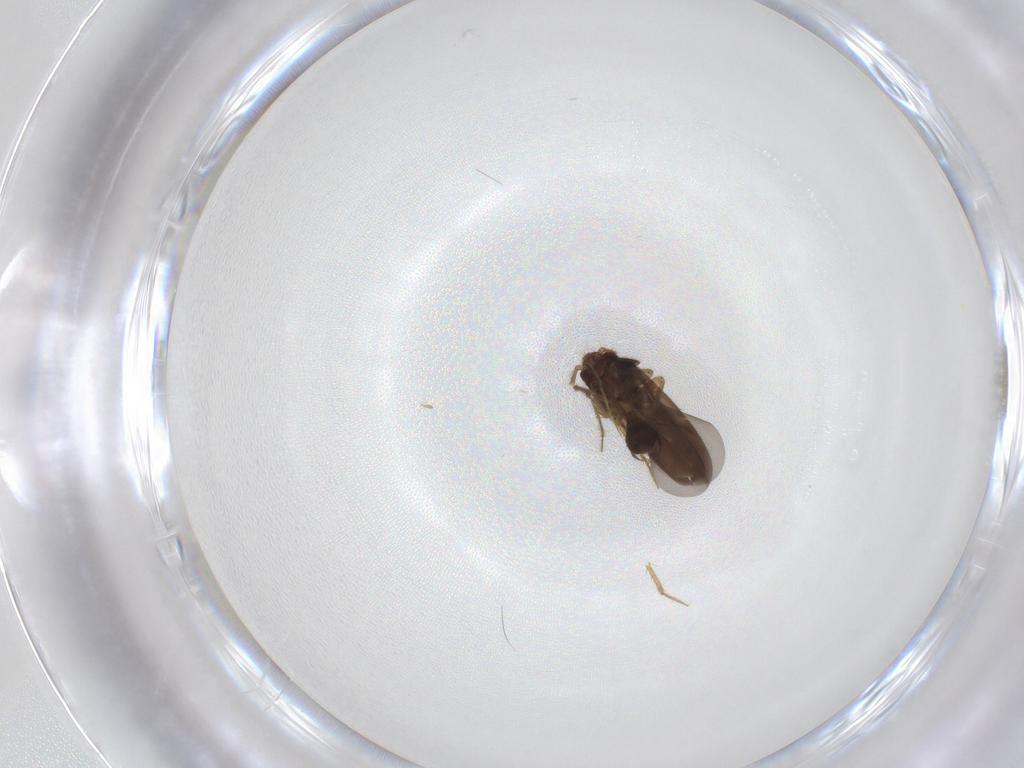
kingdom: Animalia
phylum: Arthropoda
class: Insecta
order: Hemiptera
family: Ceratocombidae
